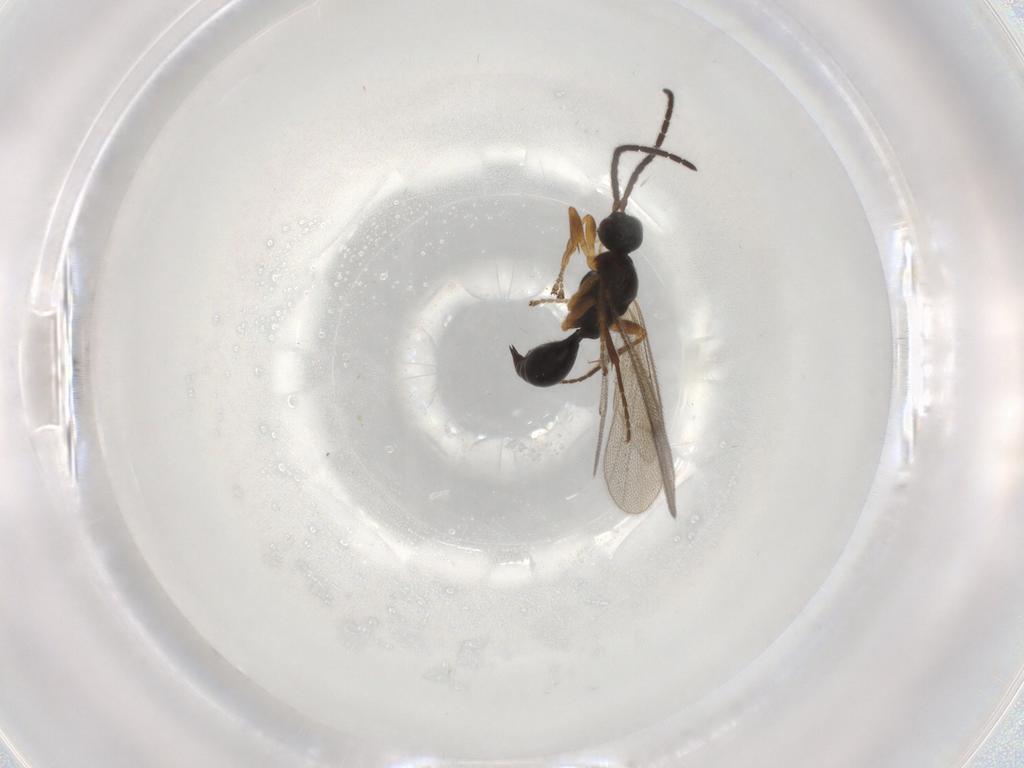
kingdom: Animalia
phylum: Arthropoda
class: Insecta
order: Hymenoptera
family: Proctotrupidae
